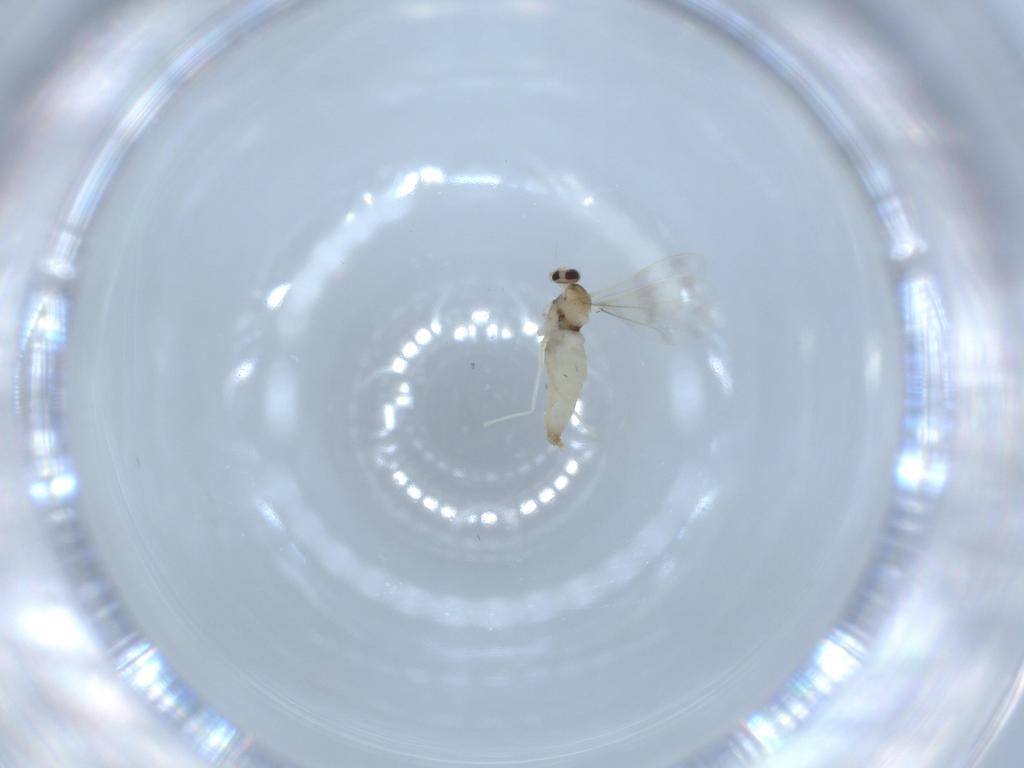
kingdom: Animalia
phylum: Arthropoda
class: Insecta
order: Diptera
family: Cecidomyiidae
